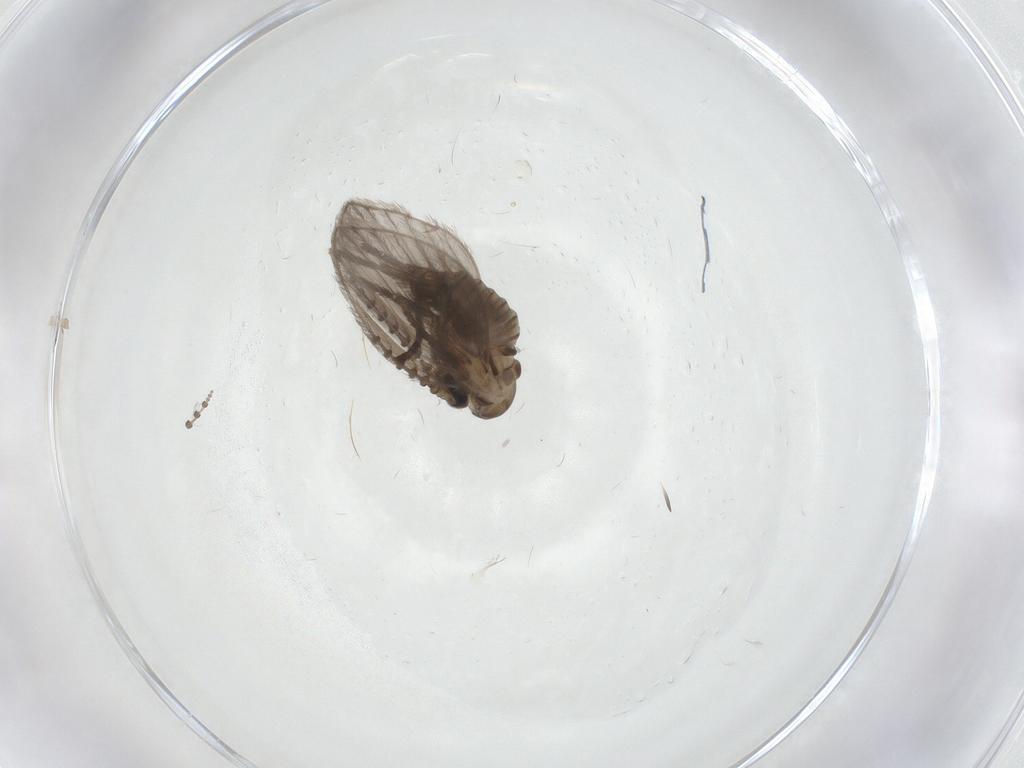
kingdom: Animalia
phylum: Arthropoda
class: Insecta
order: Diptera
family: Psychodidae
